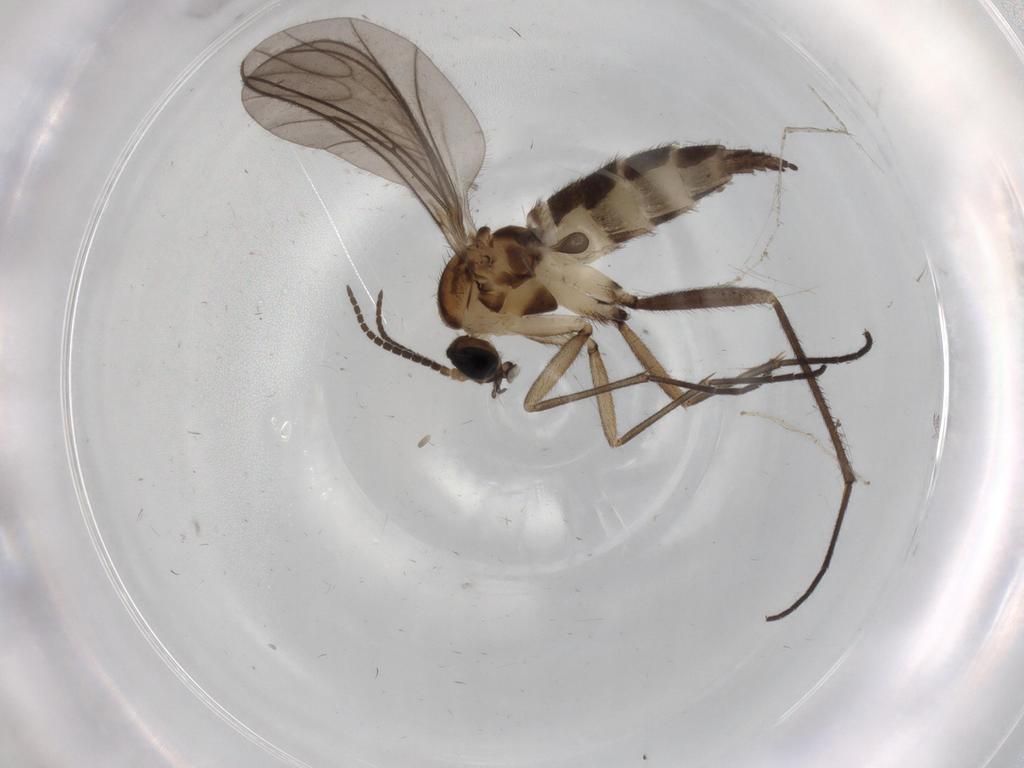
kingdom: Animalia
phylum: Arthropoda
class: Insecta
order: Diptera
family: Sciaridae
